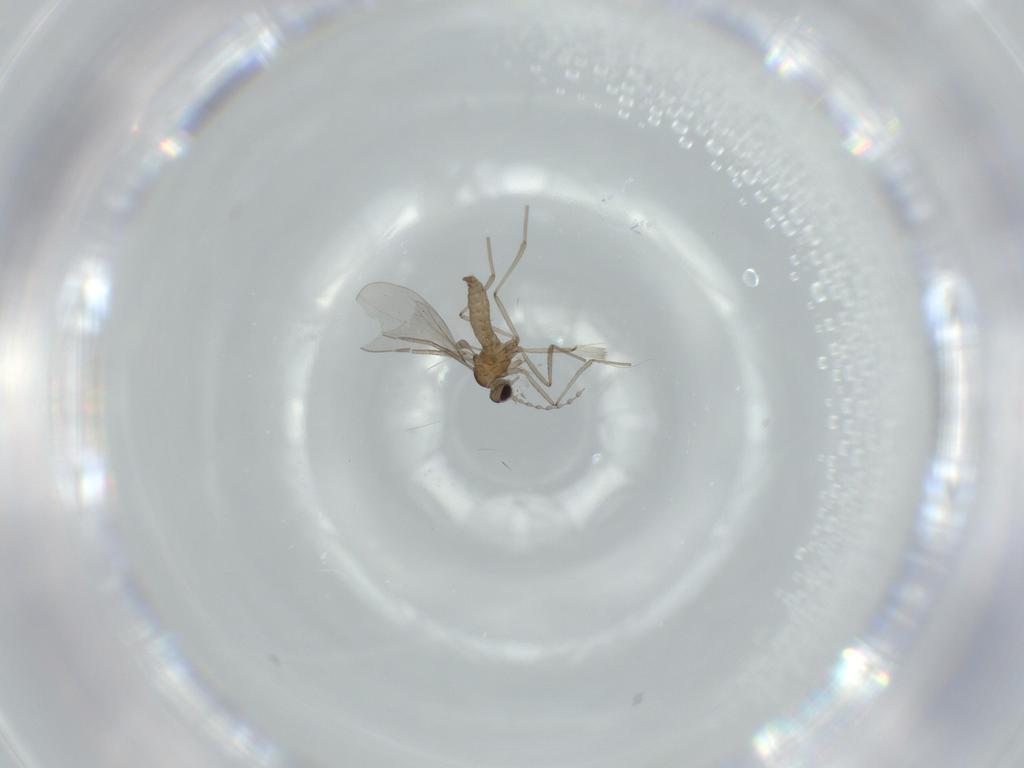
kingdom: Animalia
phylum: Arthropoda
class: Insecta
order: Diptera
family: Cecidomyiidae
